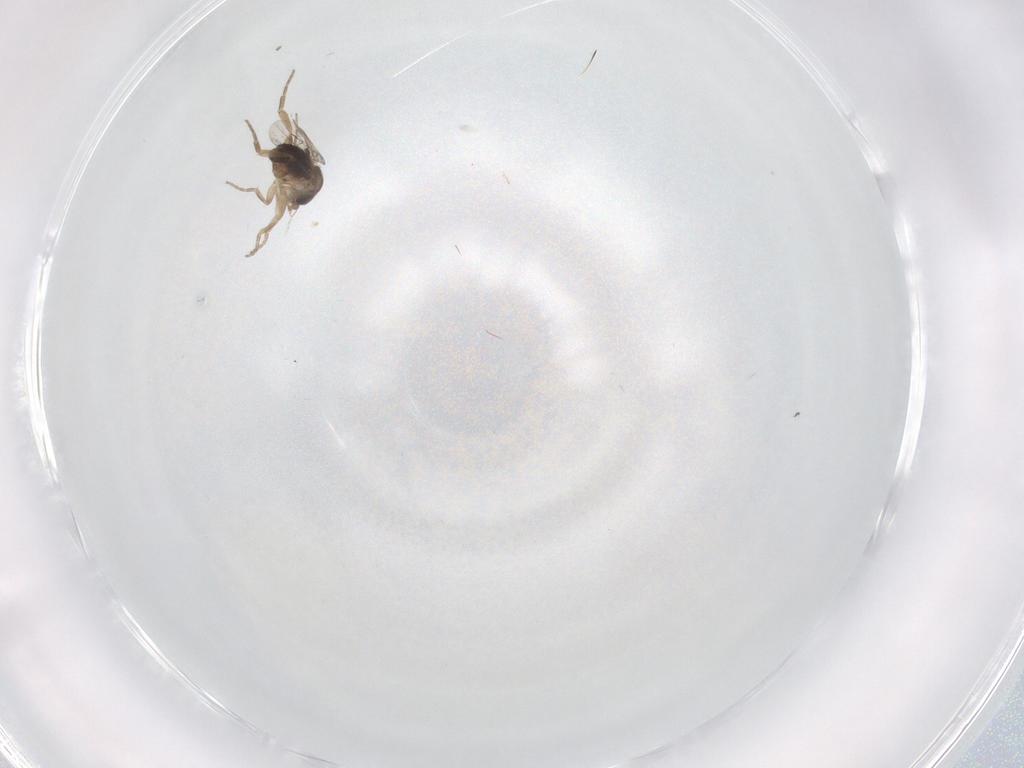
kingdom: Animalia
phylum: Arthropoda
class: Insecta
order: Diptera
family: Phoridae
